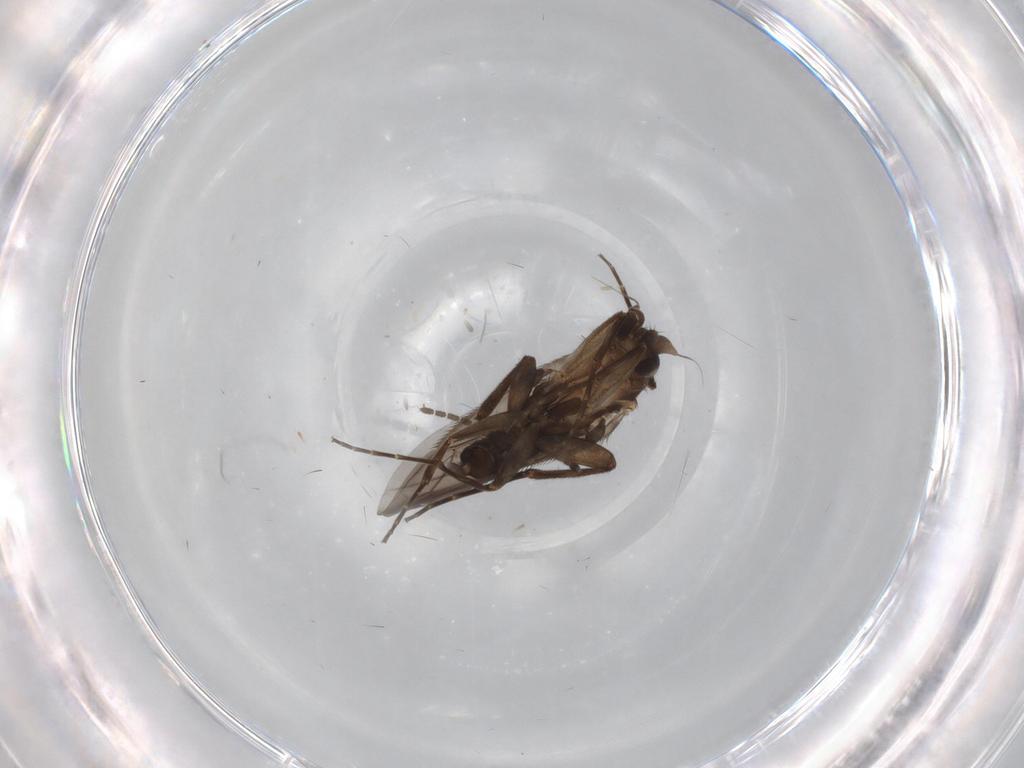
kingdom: Animalia
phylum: Arthropoda
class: Insecta
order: Diptera
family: Phoridae
